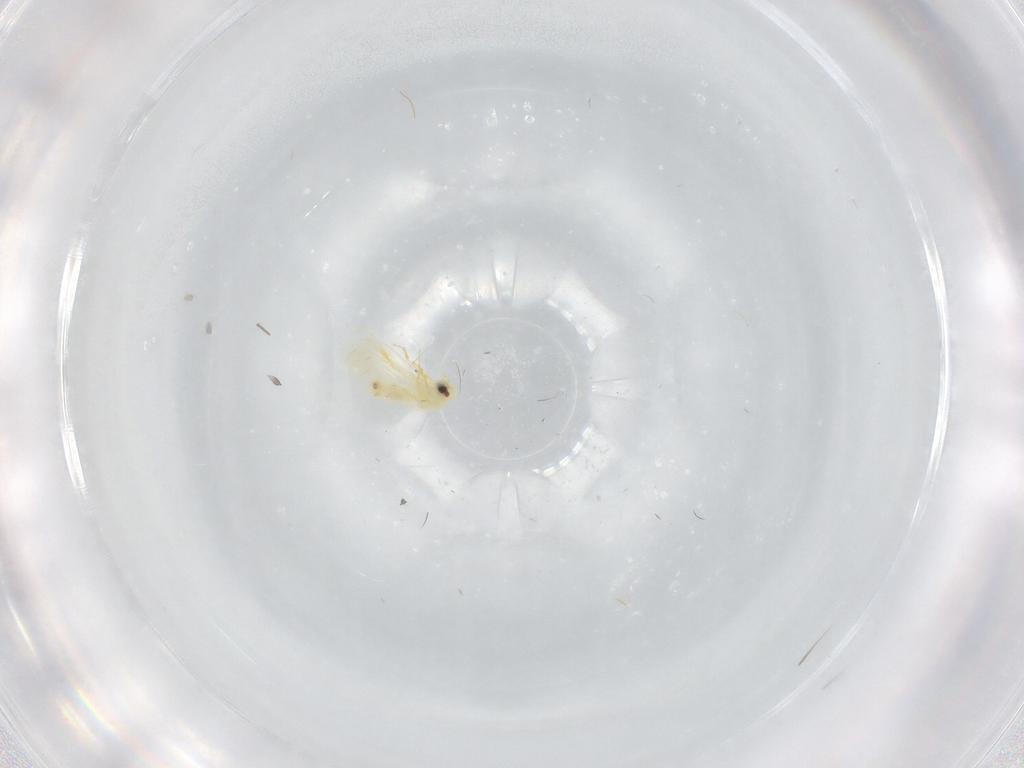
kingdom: Animalia
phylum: Arthropoda
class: Insecta
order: Hemiptera
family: Aleyrodidae
